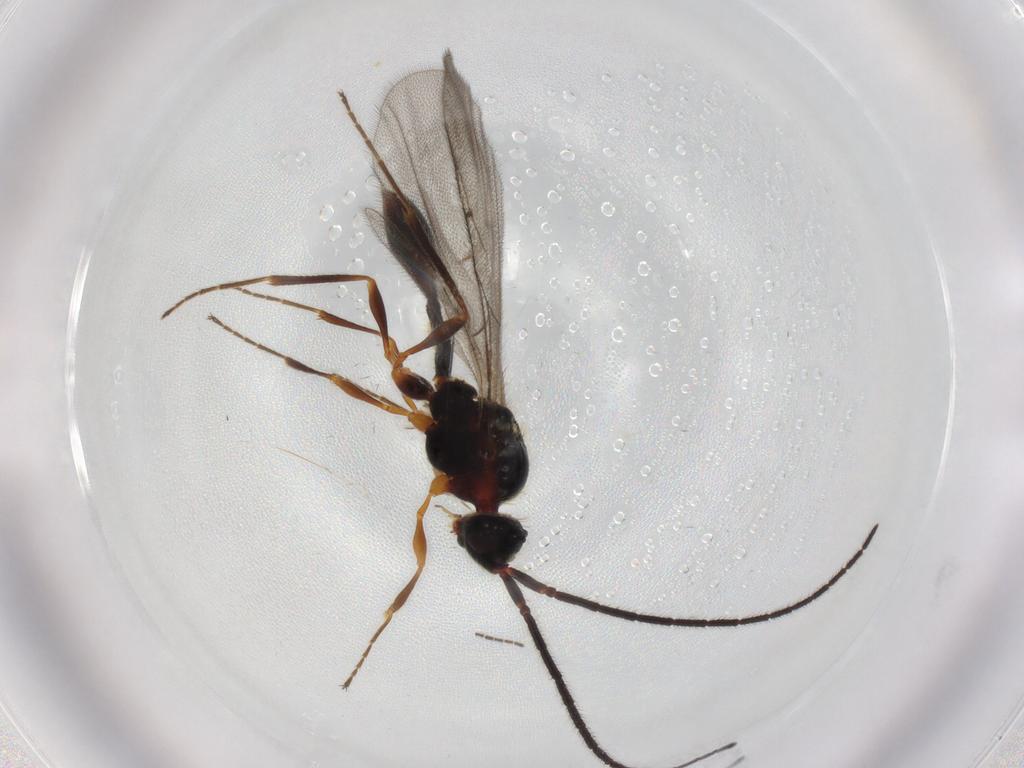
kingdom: Animalia
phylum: Arthropoda
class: Insecta
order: Hymenoptera
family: Diapriidae
